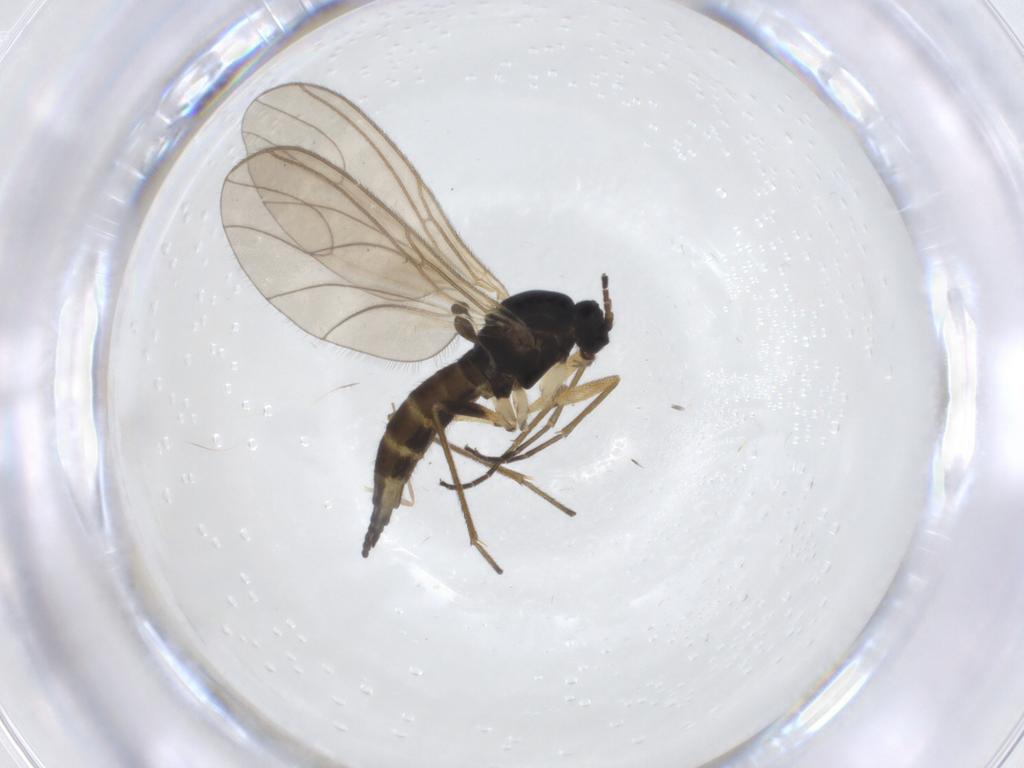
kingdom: Animalia
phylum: Arthropoda
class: Insecta
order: Diptera
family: Sciaridae
